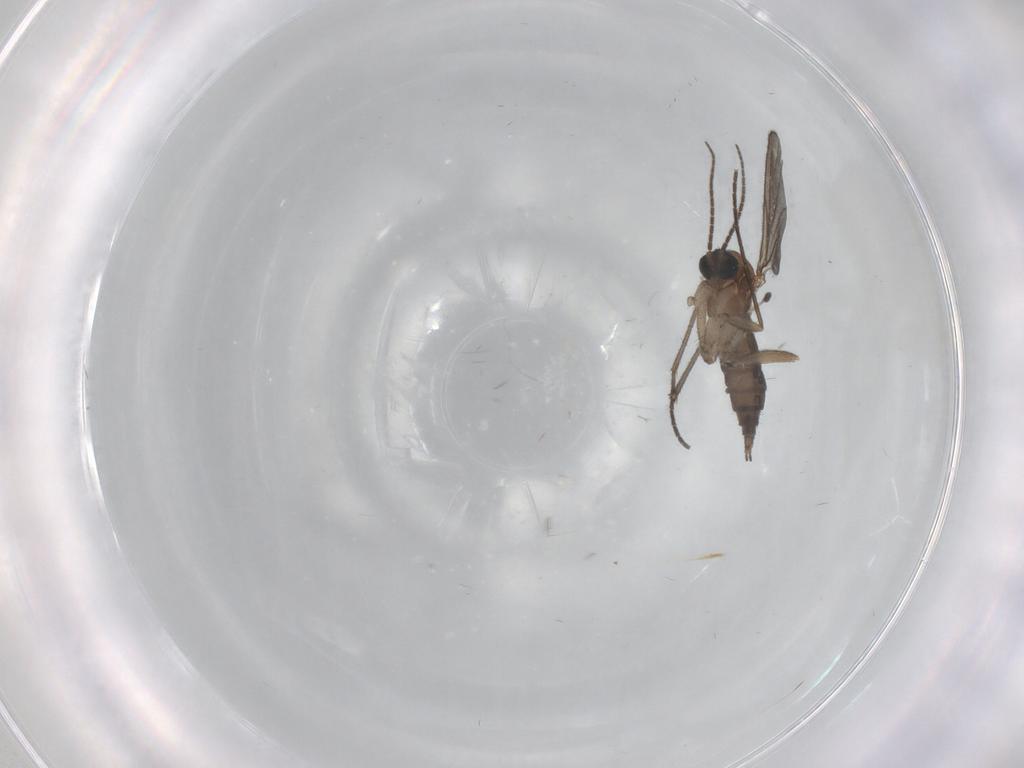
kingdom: Animalia
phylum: Arthropoda
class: Insecta
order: Diptera
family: Sciaridae
